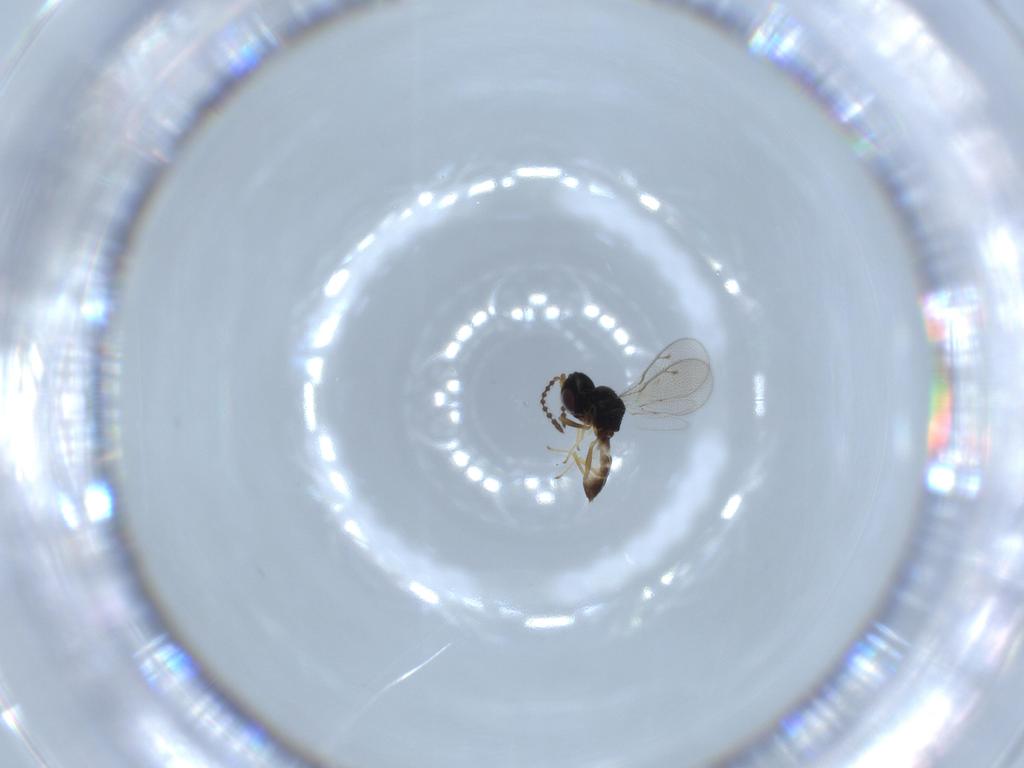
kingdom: Animalia
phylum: Arthropoda
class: Insecta
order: Hymenoptera
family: Pteromalidae
